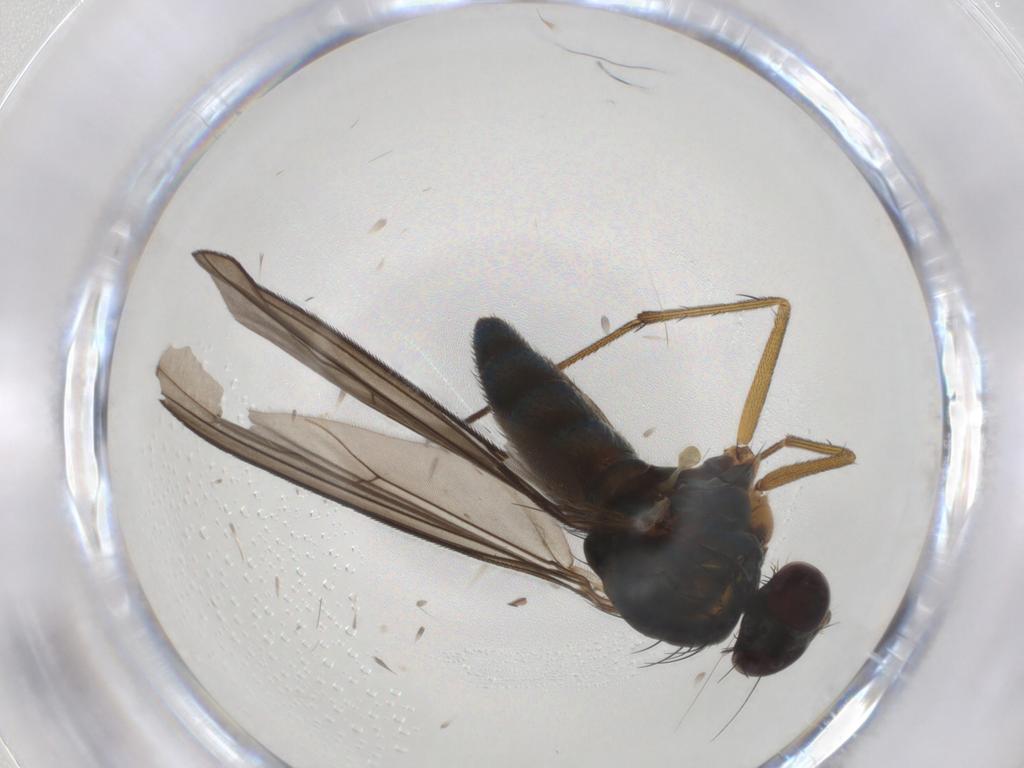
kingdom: Animalia
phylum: Arthropoda
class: Insecta
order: Diptera
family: Dolichopodidae
